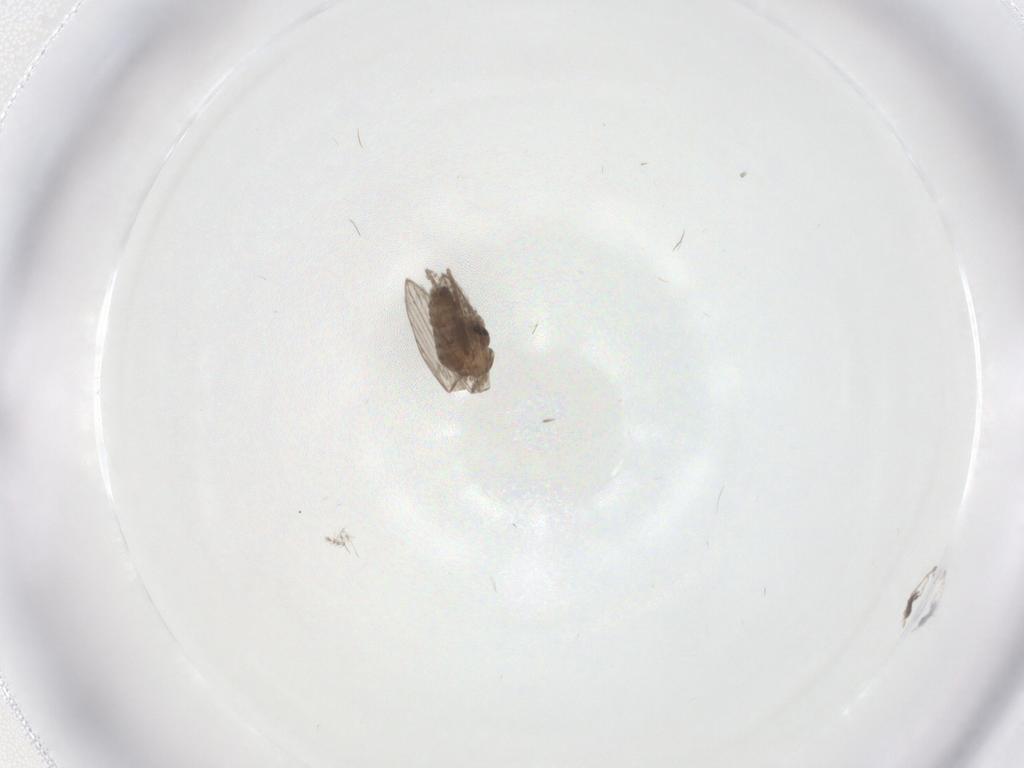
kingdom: Animalia
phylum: Arthropoda
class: Insecta
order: Diptera
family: Psychodidae
